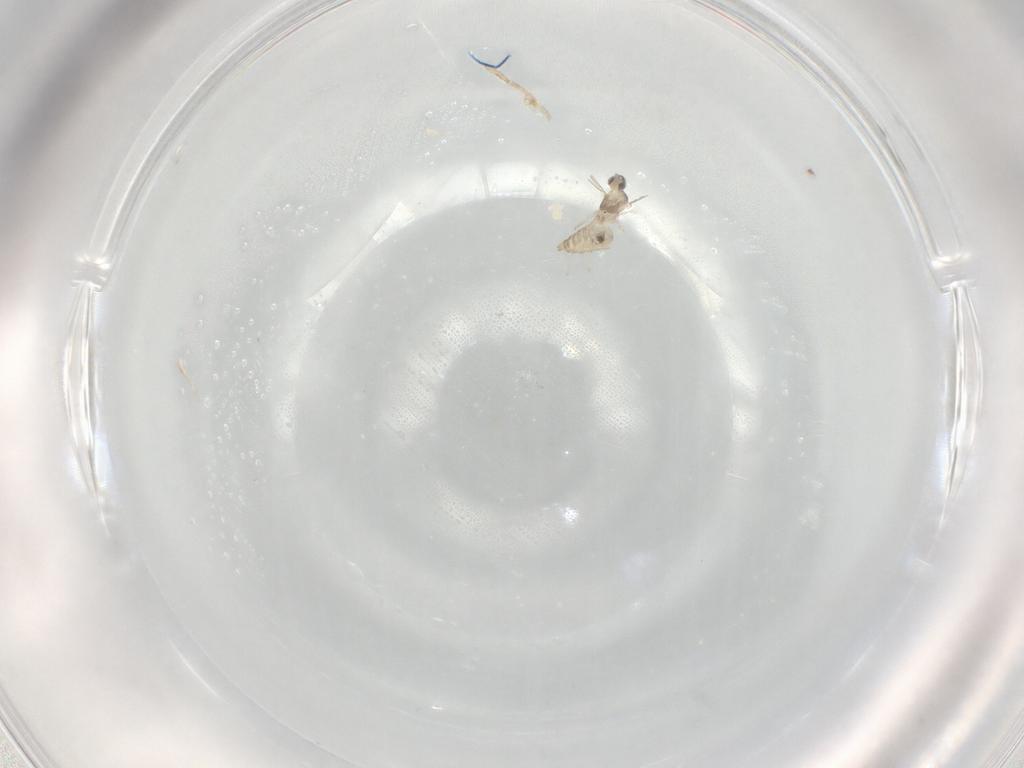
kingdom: Animalia
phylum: Arthropoda
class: Insecta
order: Diptera
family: Cecidomyiidae
